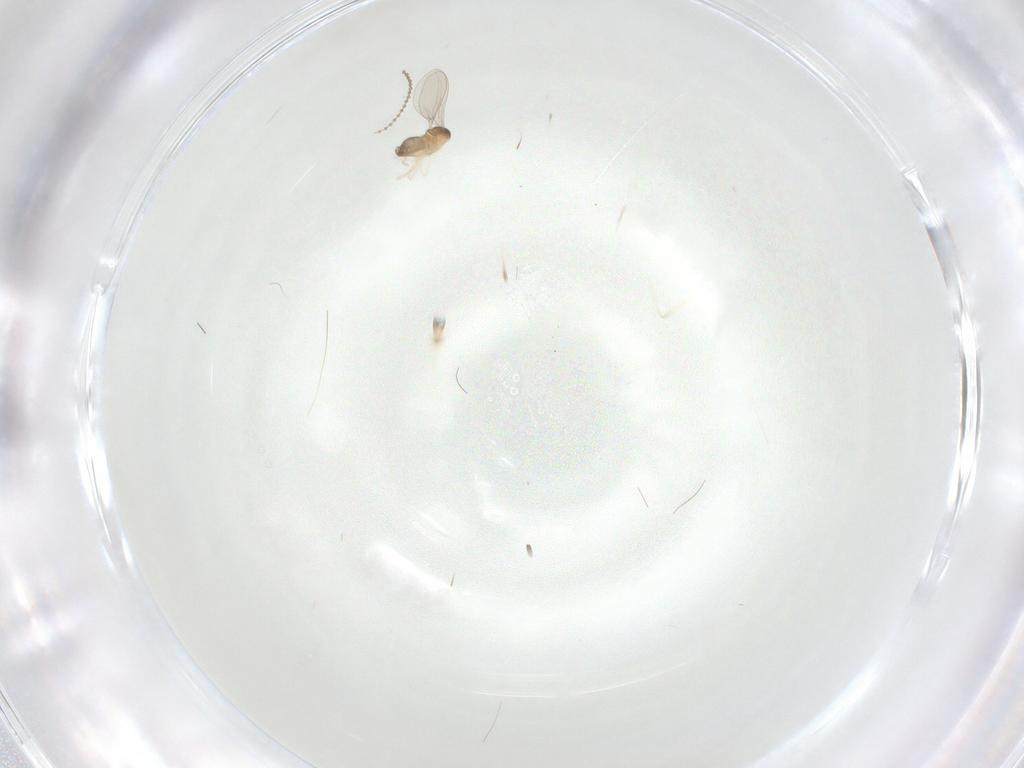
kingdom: Animalia
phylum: Arthropoda
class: Insecta
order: Diptera
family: Cecidomyiidae
